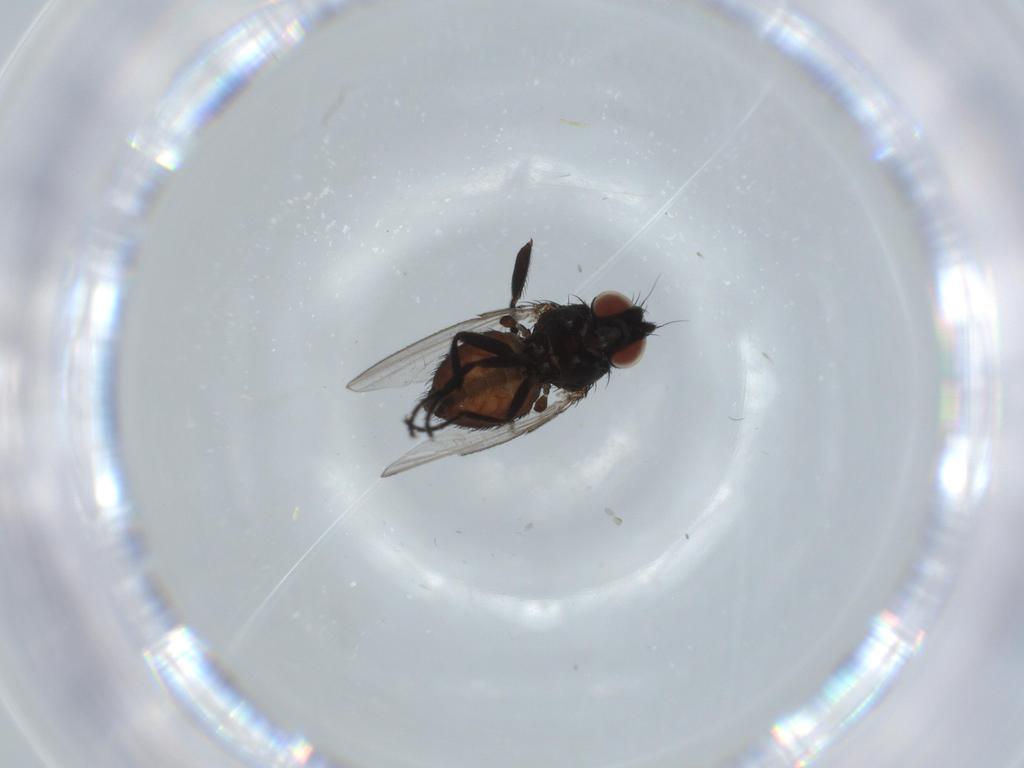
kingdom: Animalia
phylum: Arthropoda
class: Insecta
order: Diptera
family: Milichiidae
